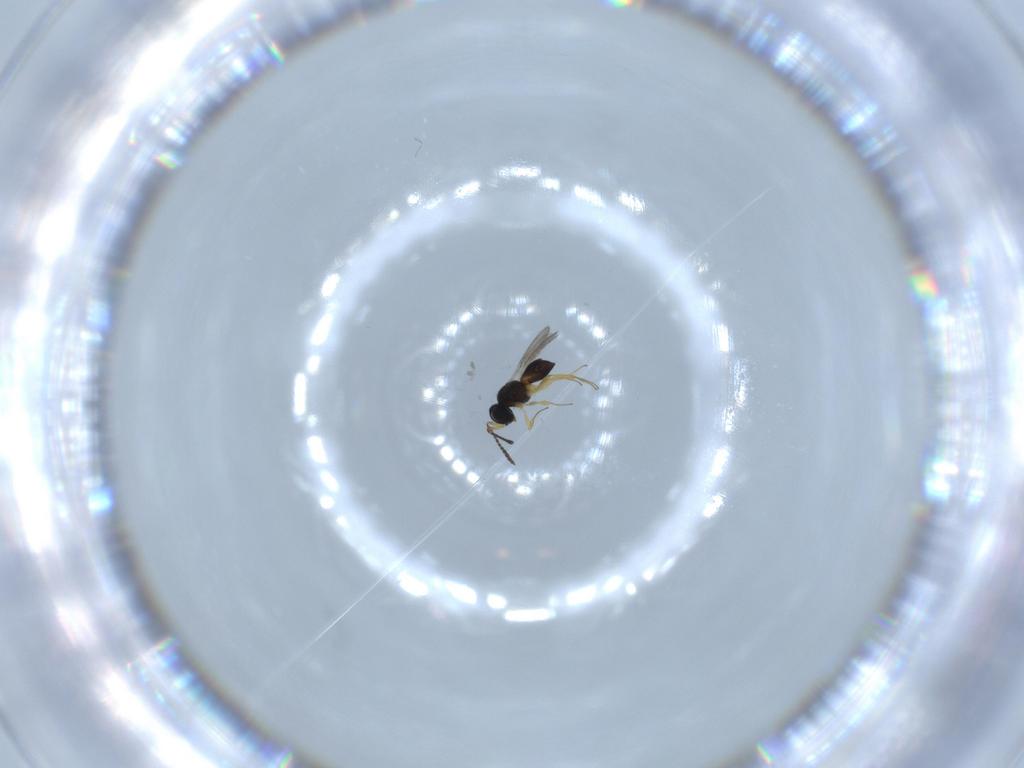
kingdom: Animalia
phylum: Arthropoda
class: Insecta
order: Hymenoptera
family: Scelionidae
